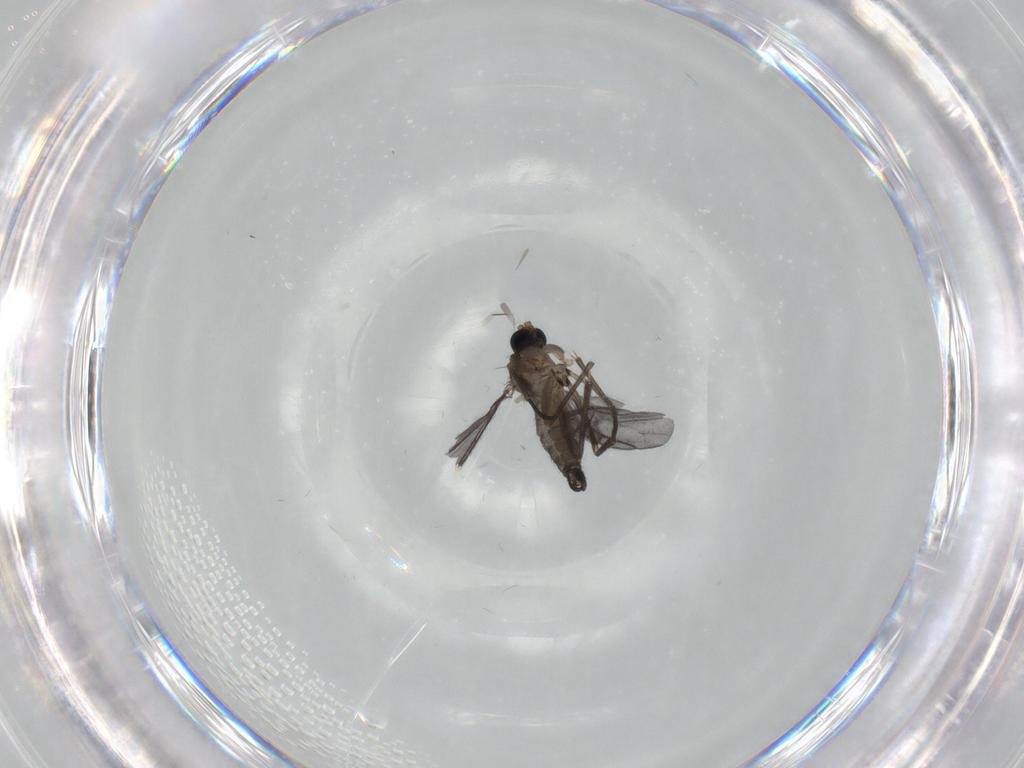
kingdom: Animalia
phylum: Arthropoda
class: Insecta
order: Diptera
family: Sciaridae
